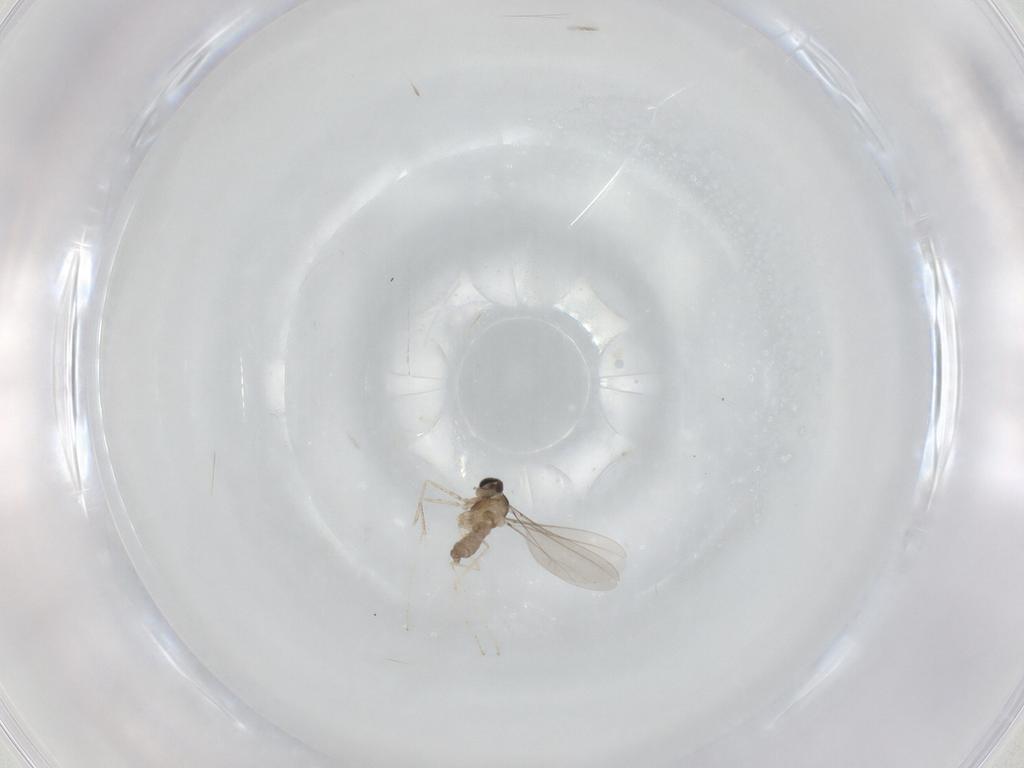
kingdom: Animalia
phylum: Arthropoda
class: Insecta
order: Diptera
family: Cecidomyiidae
